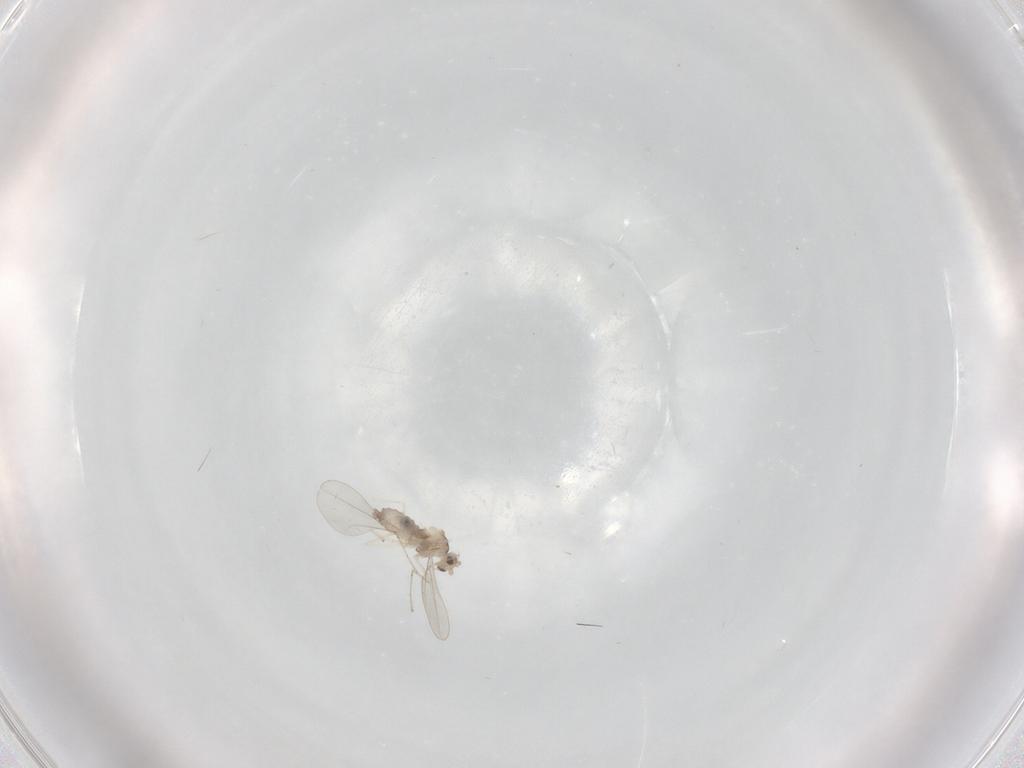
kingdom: Animalia
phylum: Arthropoda
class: Insecta
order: Diptera
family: Cecidomyiidae
